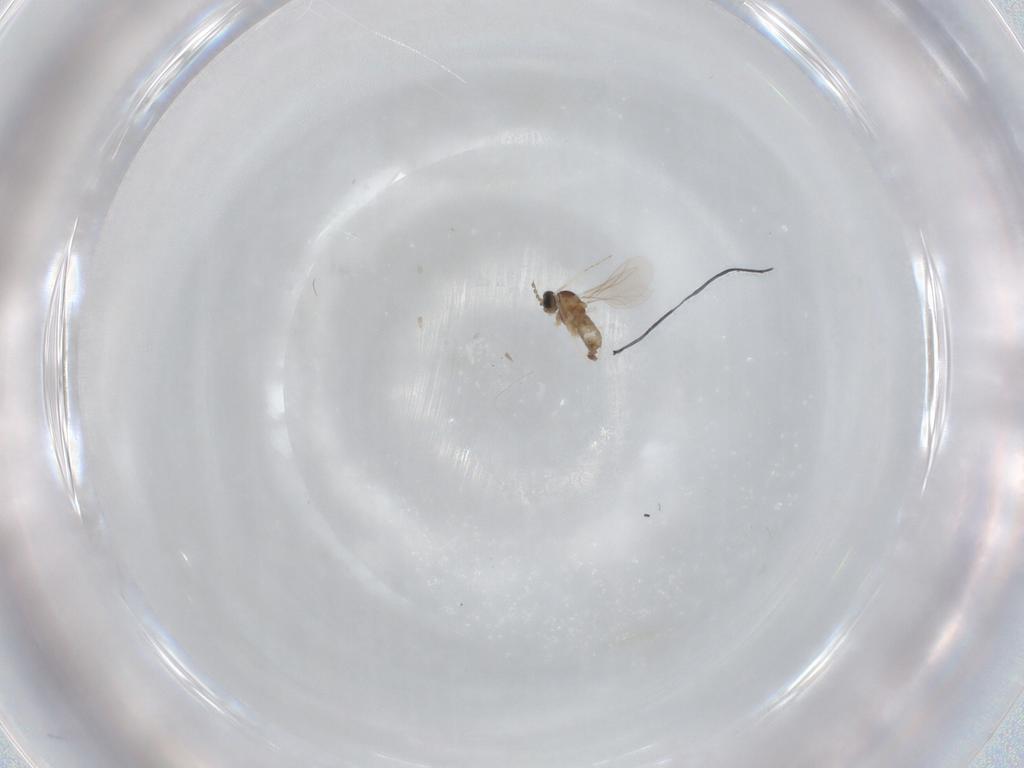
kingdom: Animalia
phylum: Arthropoda
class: Insecta
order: Diptera
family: Cecidomyiidae
